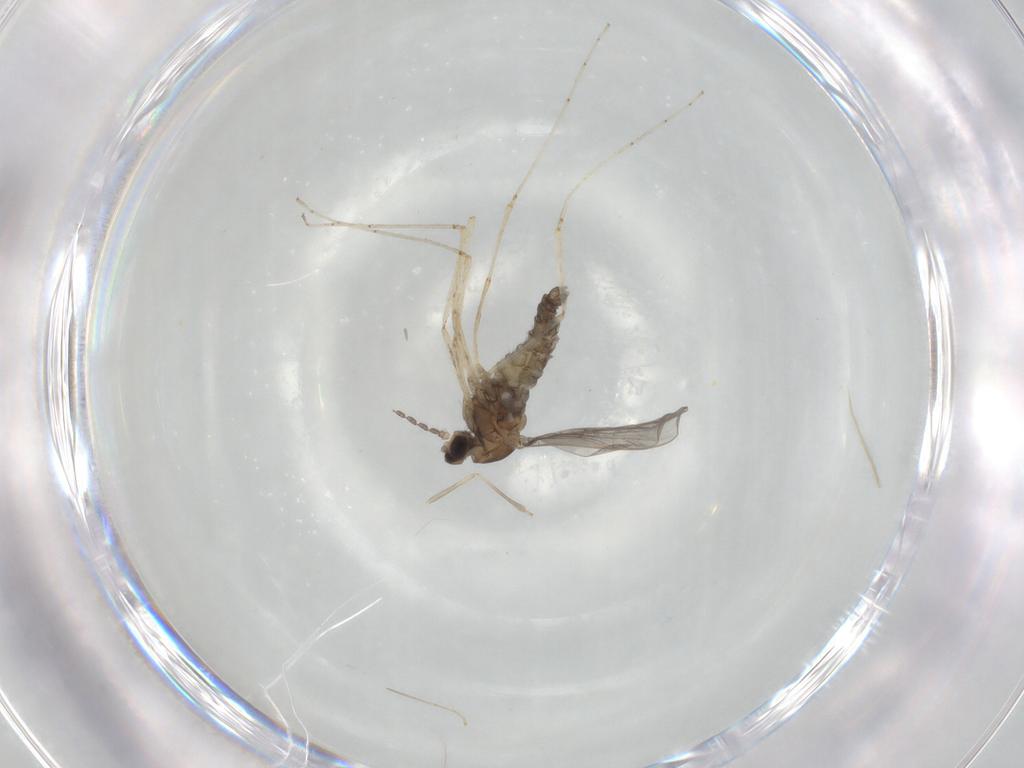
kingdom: Animalia
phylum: Arthropoda
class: Insecta
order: Diptera
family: Cecidomyiidae
